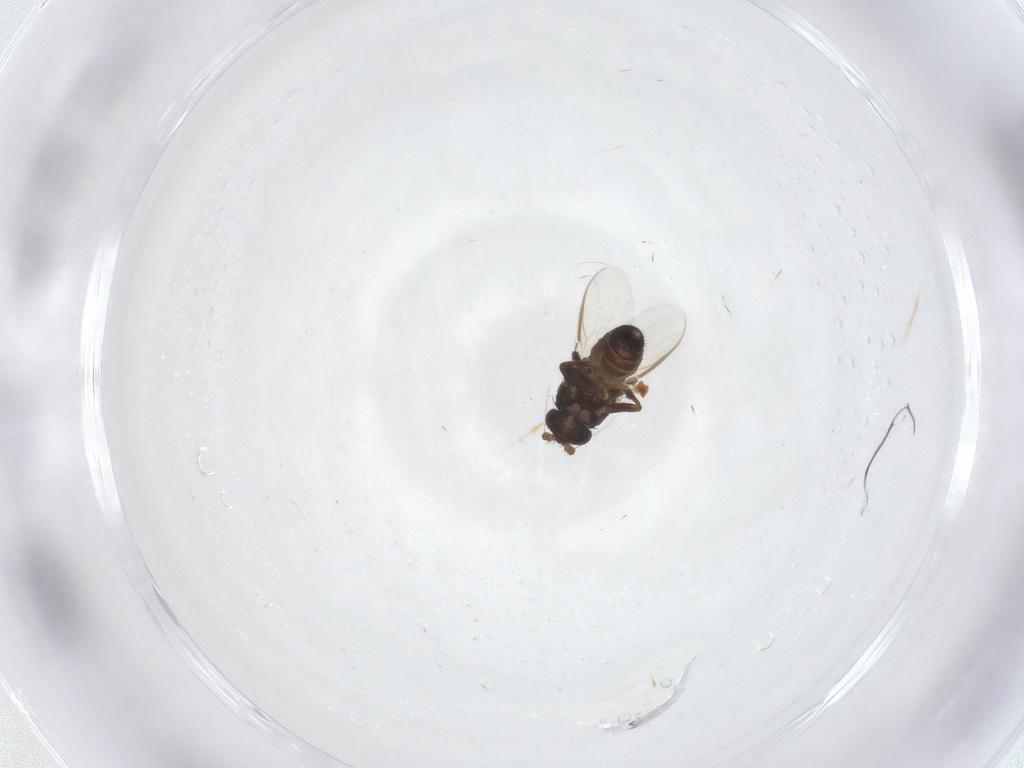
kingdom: Animalia
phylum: Arthropoda
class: Insecta
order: Diptera
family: Sphaeroceridae
